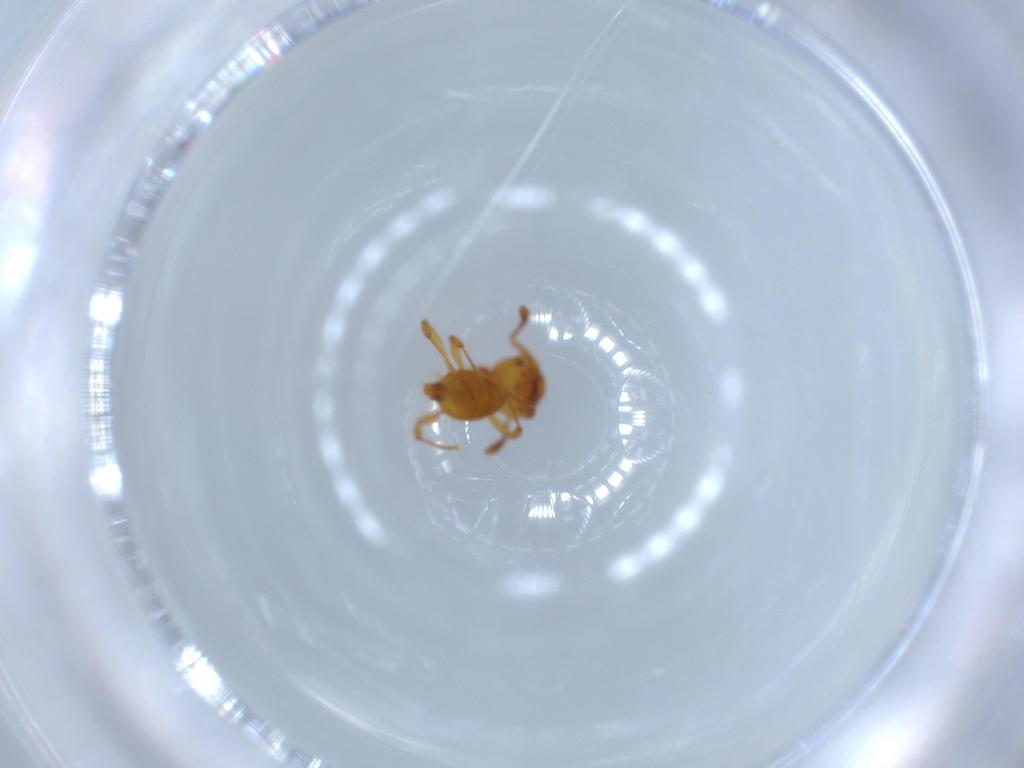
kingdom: Animalia
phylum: Arthropoda
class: Insecta
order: Hymenoptera
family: Formicidae
